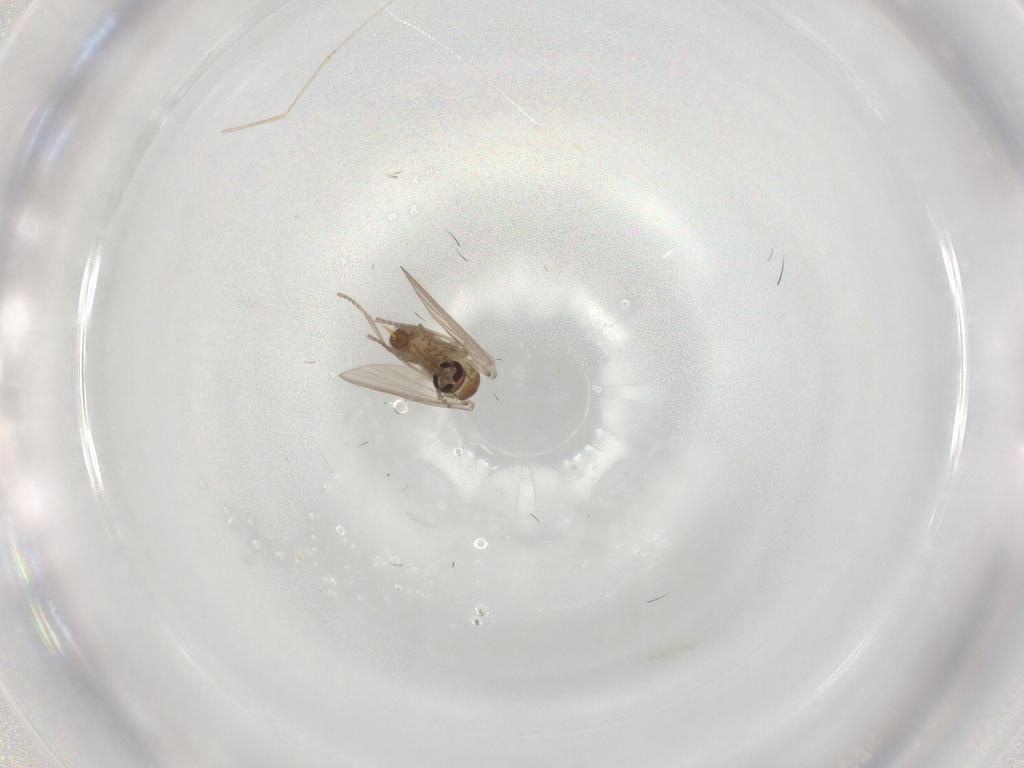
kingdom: Animalia
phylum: Arthropoda
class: Insecta
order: Diptera
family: Psychodidae
